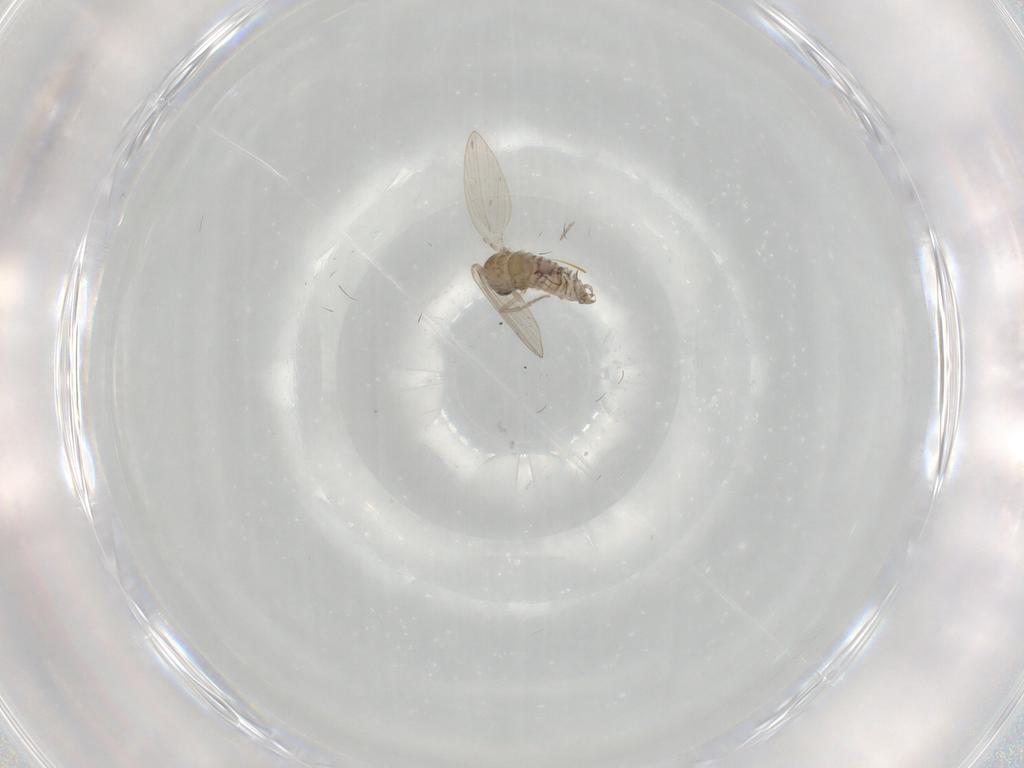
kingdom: Animalia
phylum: Arthropoda
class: Insecta
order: Diptera
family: Psychodidae
